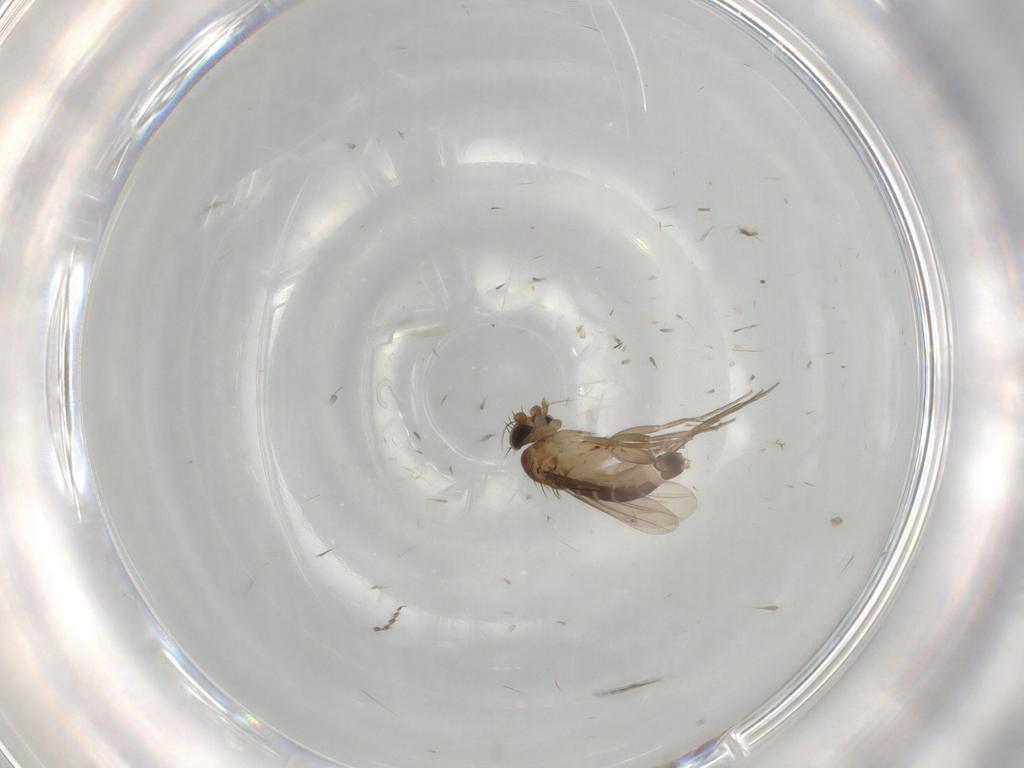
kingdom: Animalia
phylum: Arthropoda
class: Insecta
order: Diptera
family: Phoridae
